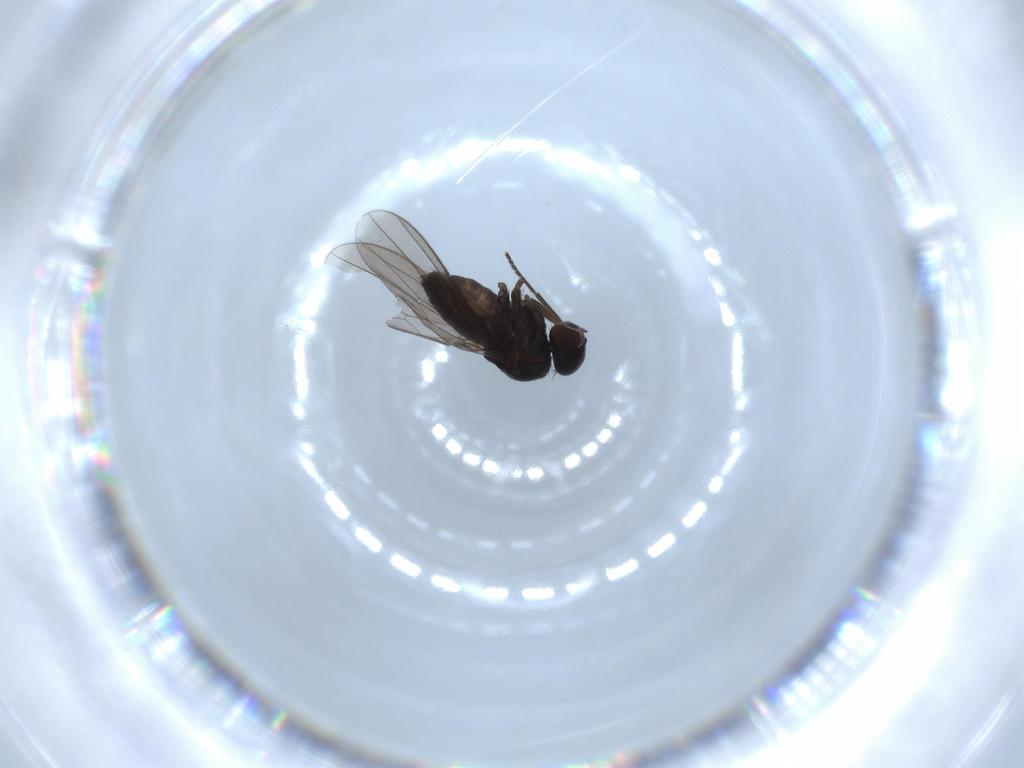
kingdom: Animalia
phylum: Arthropoda
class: Insecta
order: Diptera
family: Dolichopodidae
